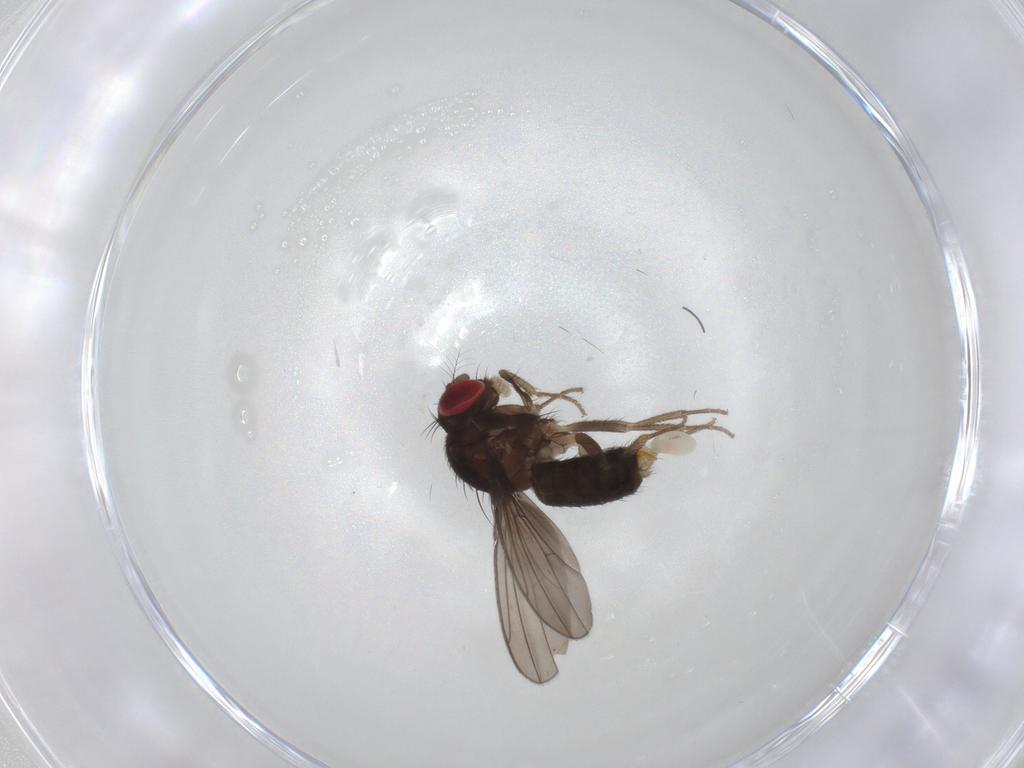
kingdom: Animalia
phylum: Arthropoda
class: Insecta
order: Diptera
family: Drosophilidae
